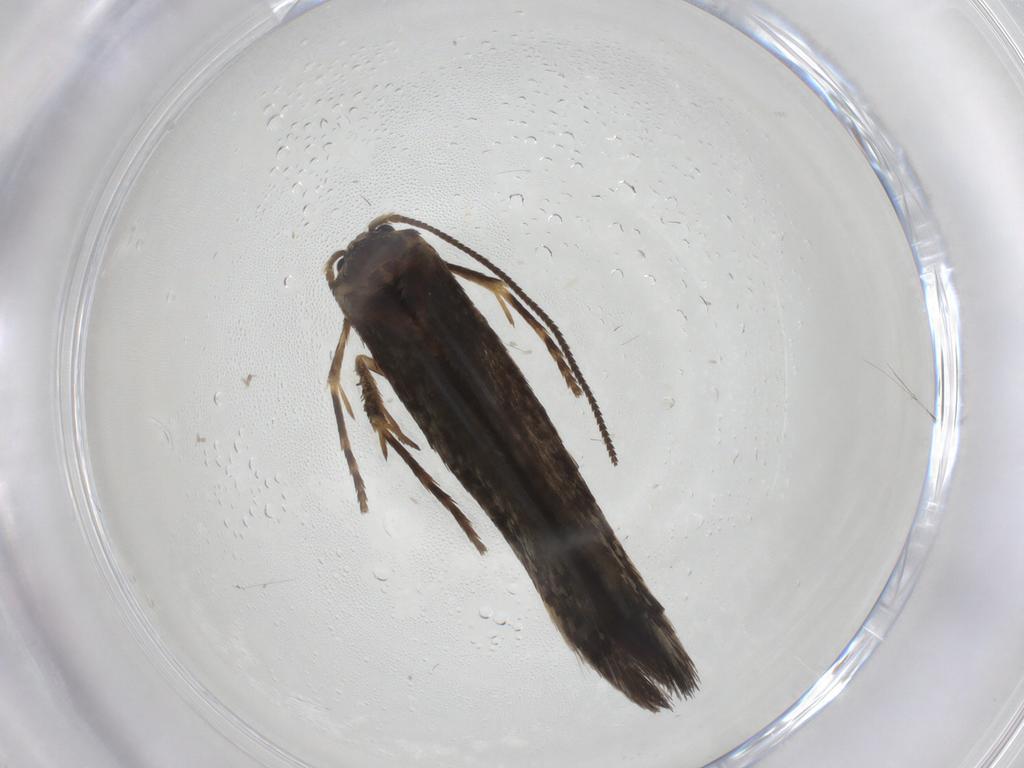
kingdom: Animalia
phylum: Arthropoda
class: Insecta
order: Lepidoptera
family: Nepticulidae
